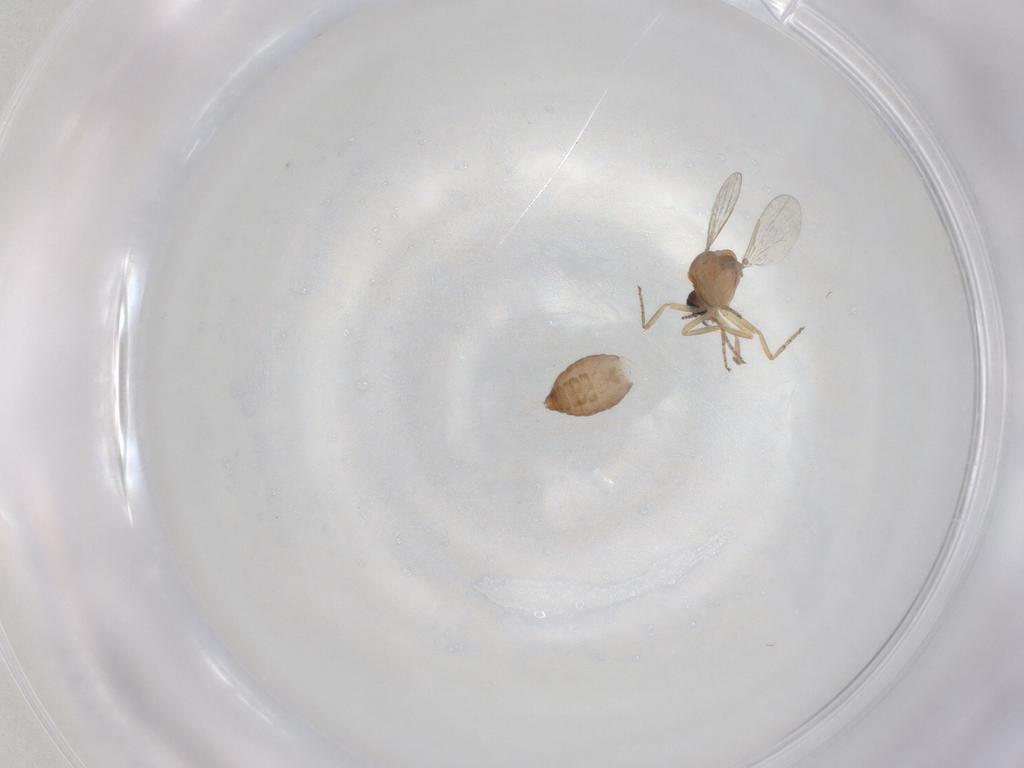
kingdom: Animalia
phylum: Arthropoda
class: Insecta
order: Diptera
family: Ceratopogonidae
